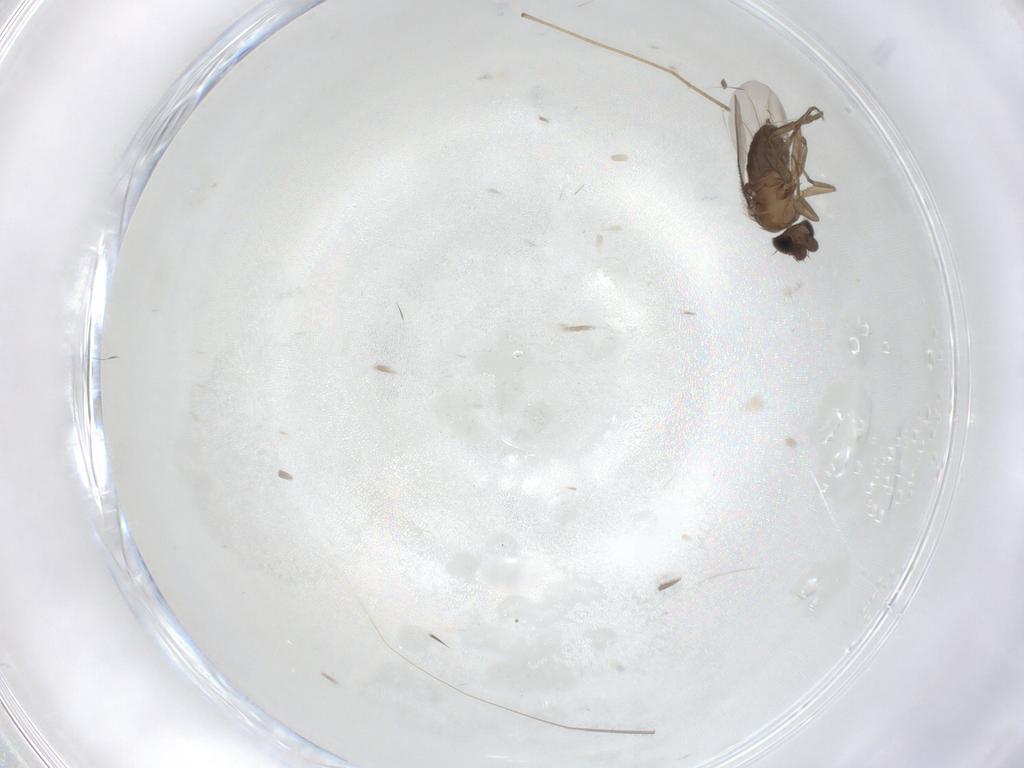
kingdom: Animalia
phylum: Arthropoda
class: Insecta
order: Diptera
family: Phoridae
